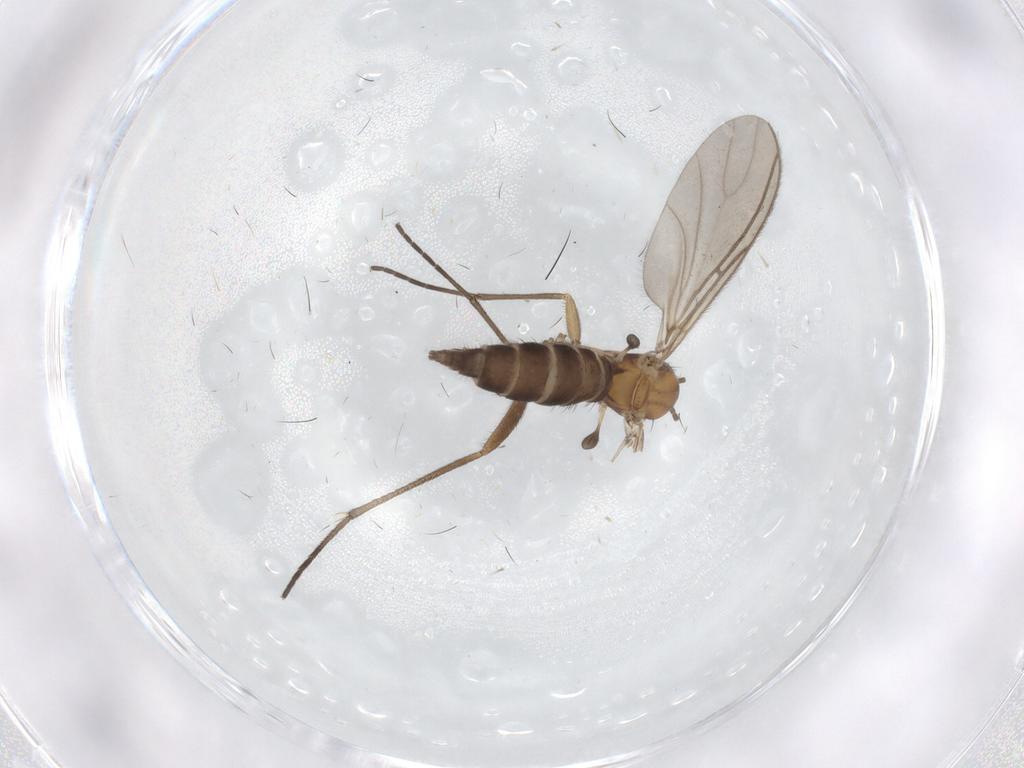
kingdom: Animalia
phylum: Arthropoda
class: Insecta
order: Diptera
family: Sciaridae
